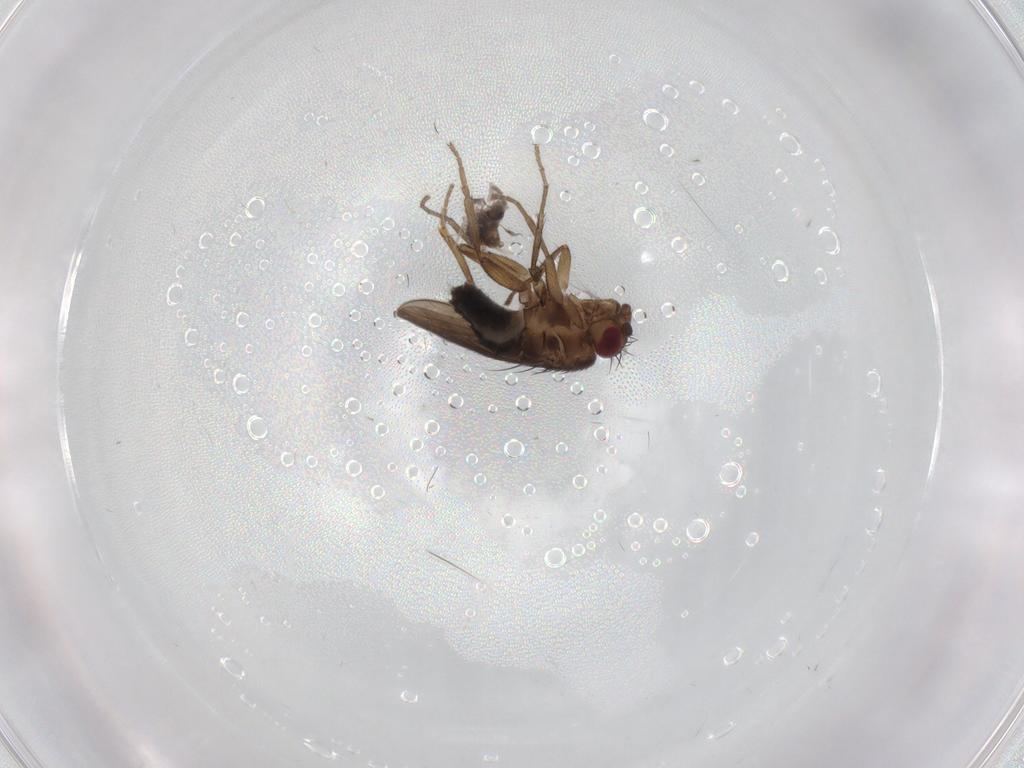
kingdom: Animalia
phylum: Arthropoda
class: Insecta
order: Diptera
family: Sphaeroceridae
